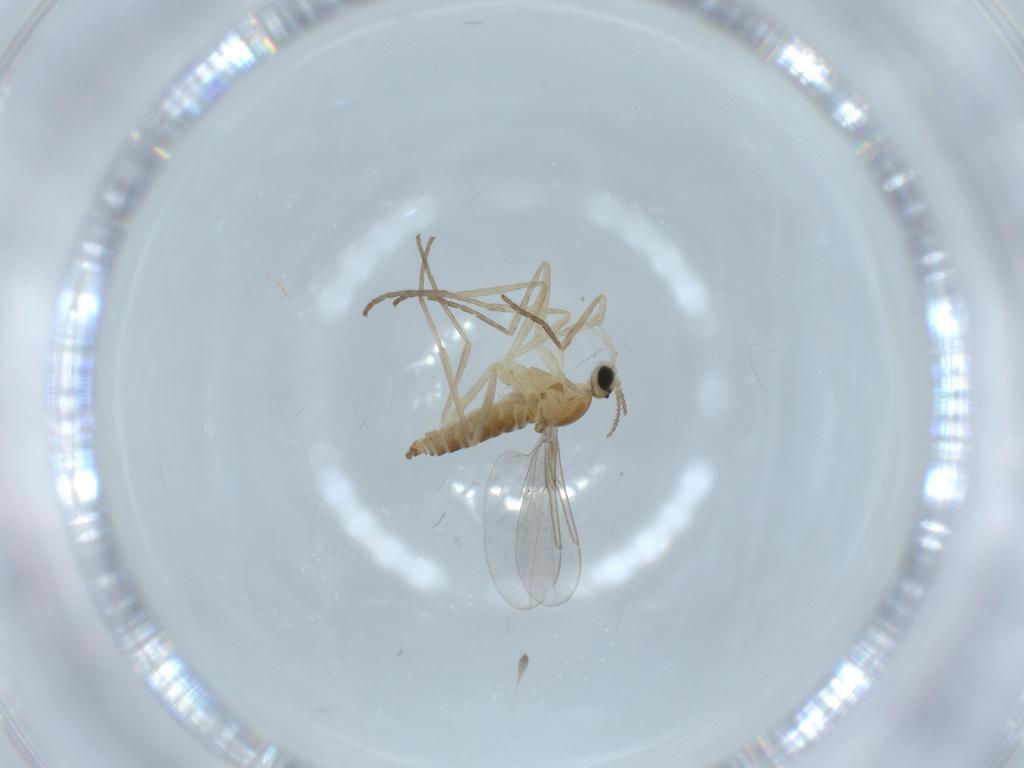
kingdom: Animalia
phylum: Arthropoda
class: Insecta
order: Diptera
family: Cecidomyiidae
